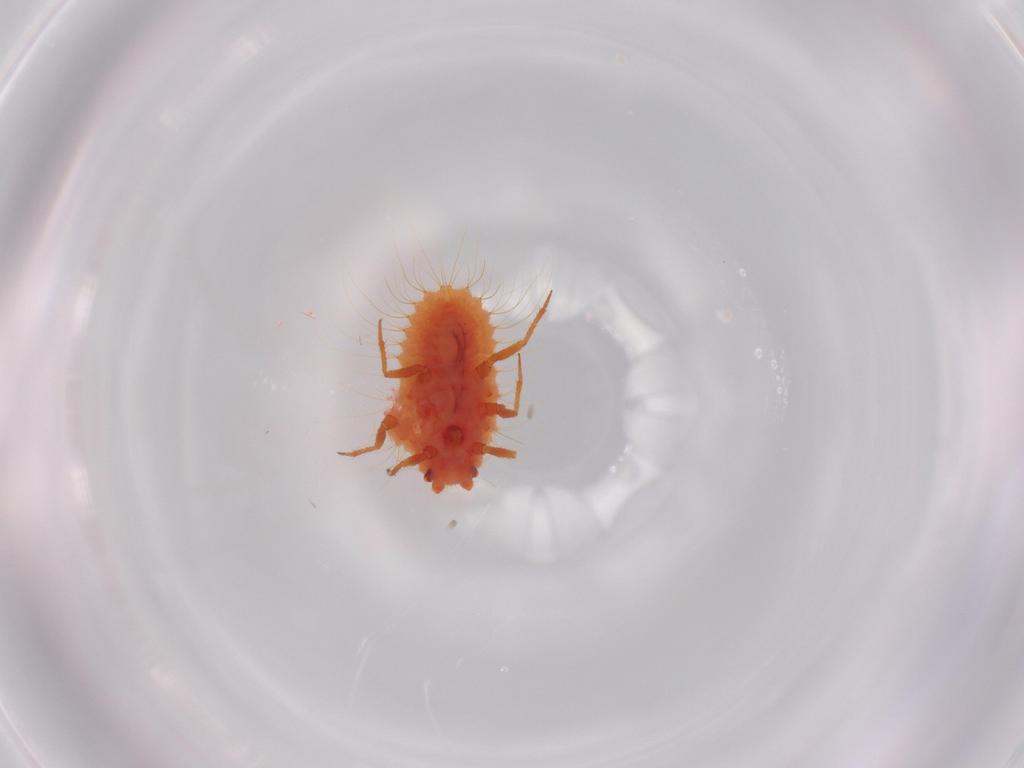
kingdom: Animalia
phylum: Arthropoda
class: Insecta
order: Hemiptera
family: Coccoidea_incertae_sedis
